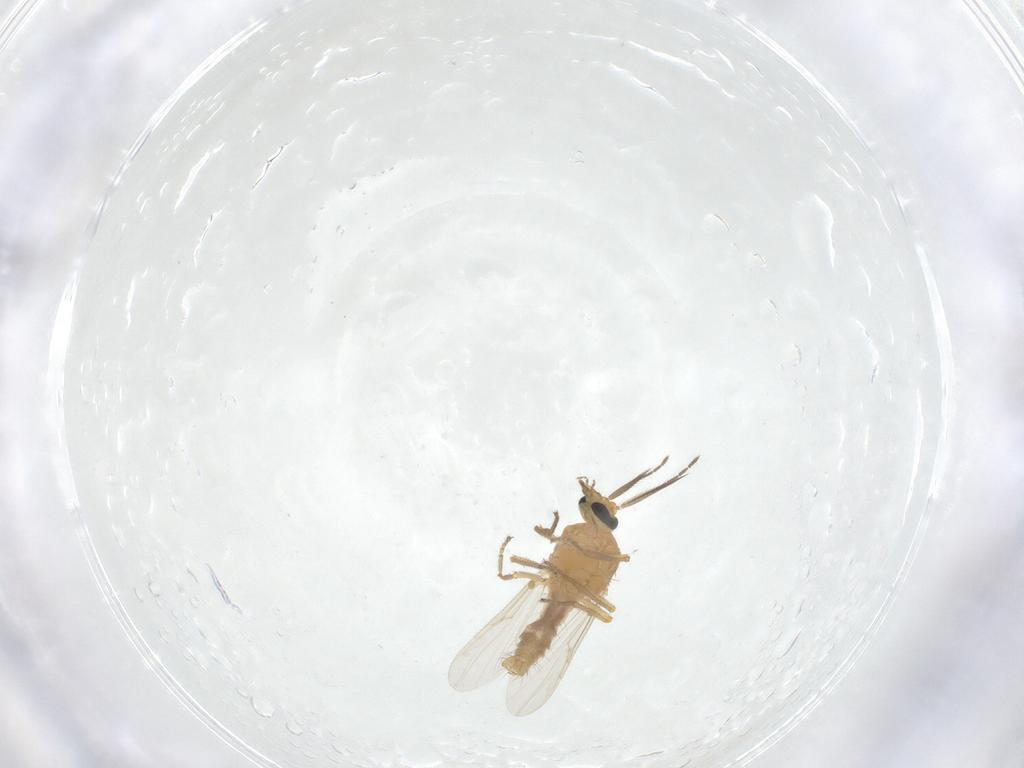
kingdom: Animalia
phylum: Arthropoda
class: Insecta
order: Diptera
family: Ceratopogonidae
